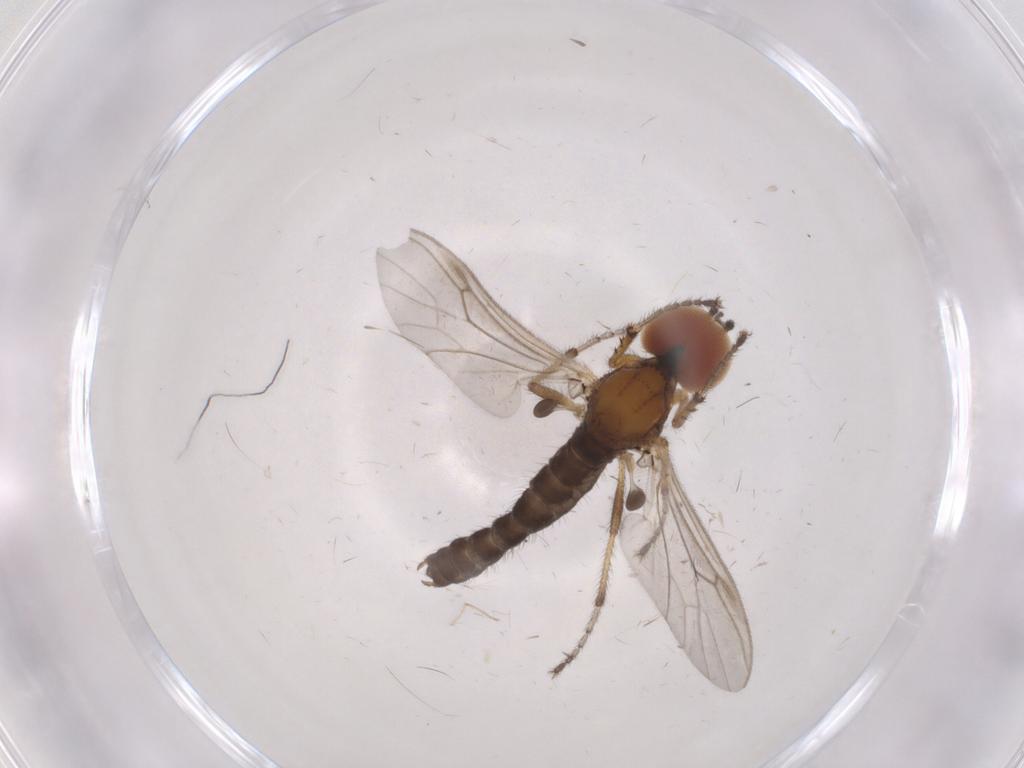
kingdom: Animalia
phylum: Arthropoda
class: Insecta
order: Diptera
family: Bibionidae
